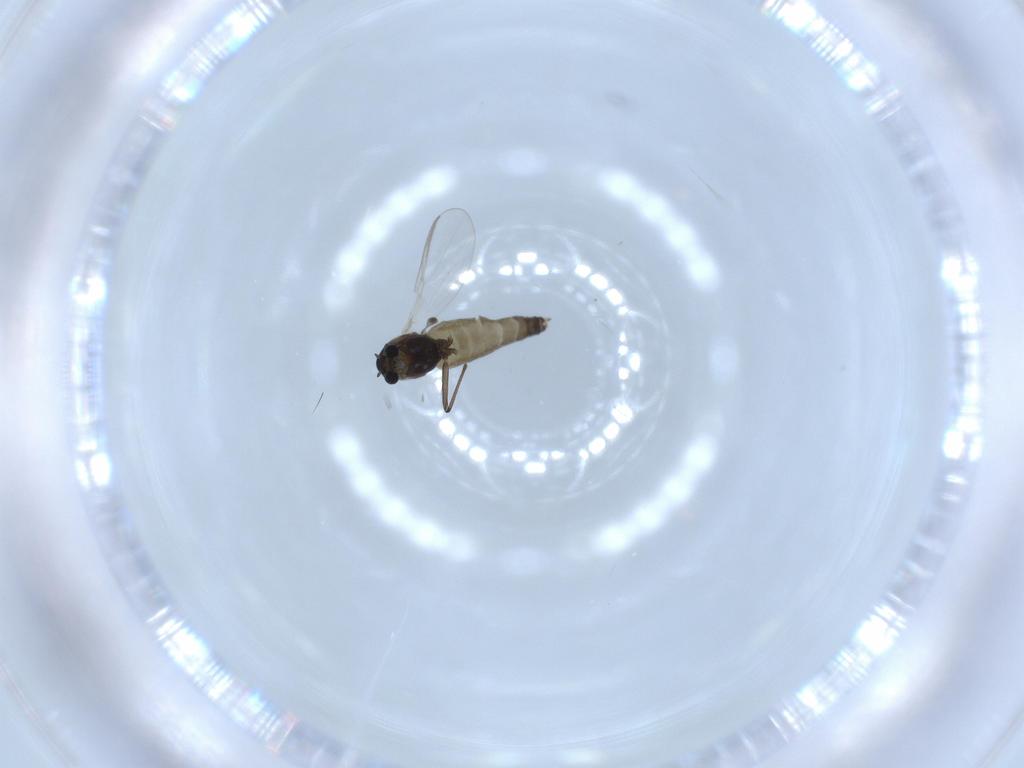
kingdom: Animalia
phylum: Arthropoda
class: Insecta
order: Diptera
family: Chironomidae
